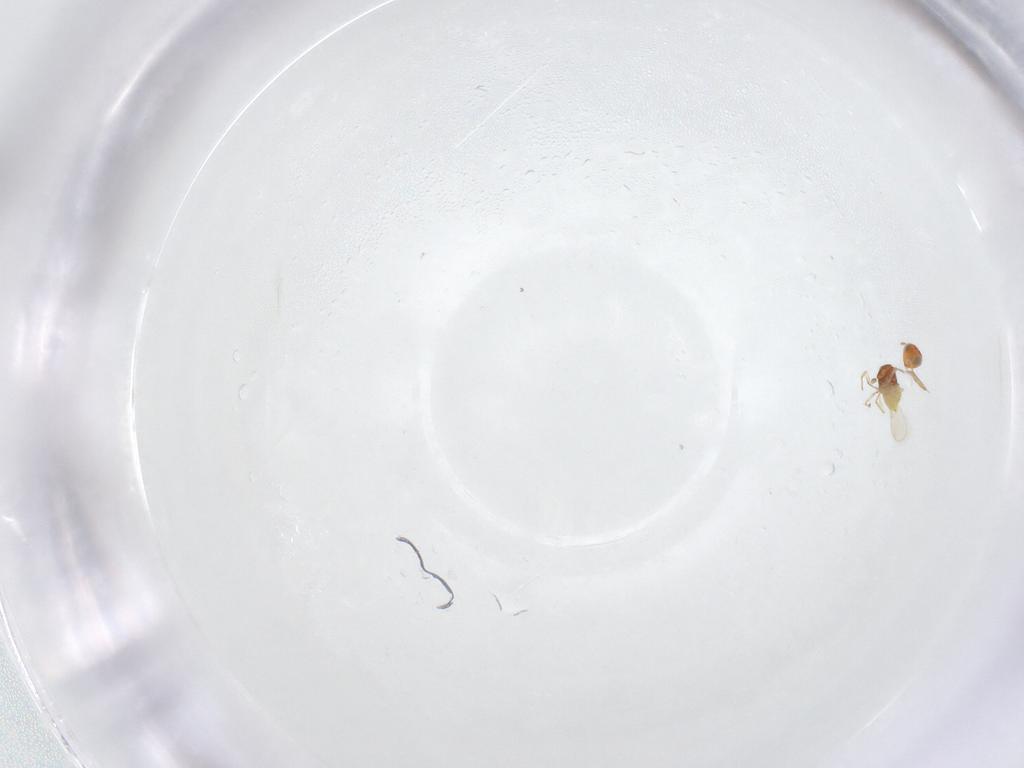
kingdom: Animalia
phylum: Arthropoda
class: Insecta
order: Hymenoptera
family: Aphelinidae
